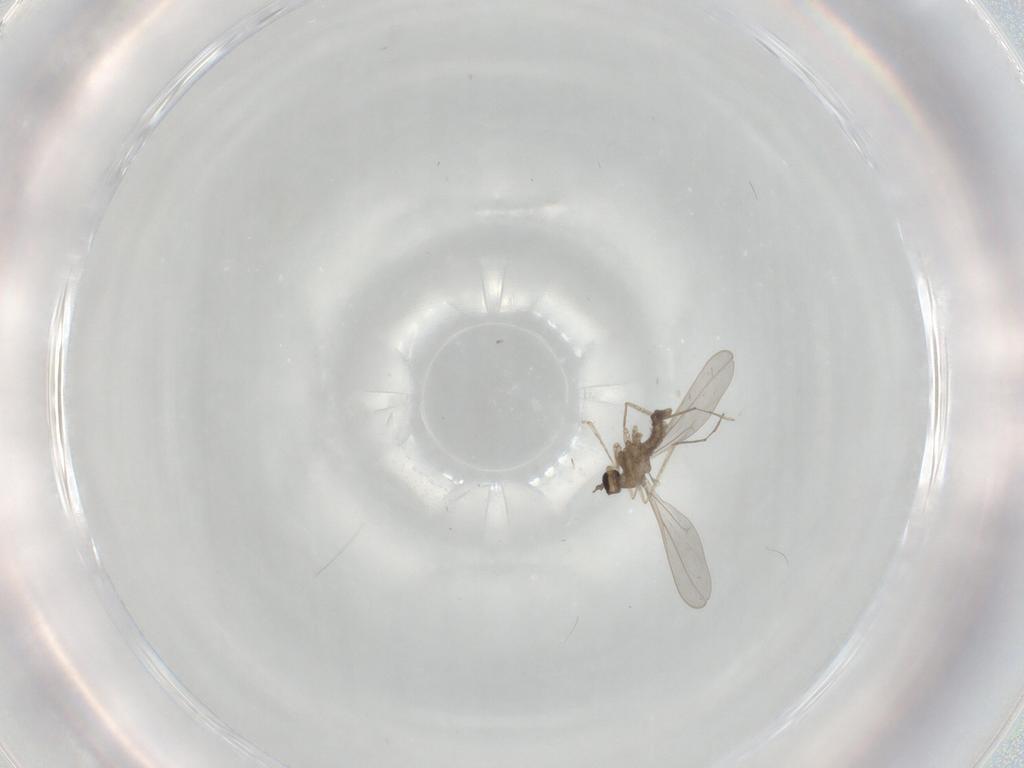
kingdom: Animalia
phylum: Arthropoda
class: Insecta
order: Diptera
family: Cecidomyiidae
